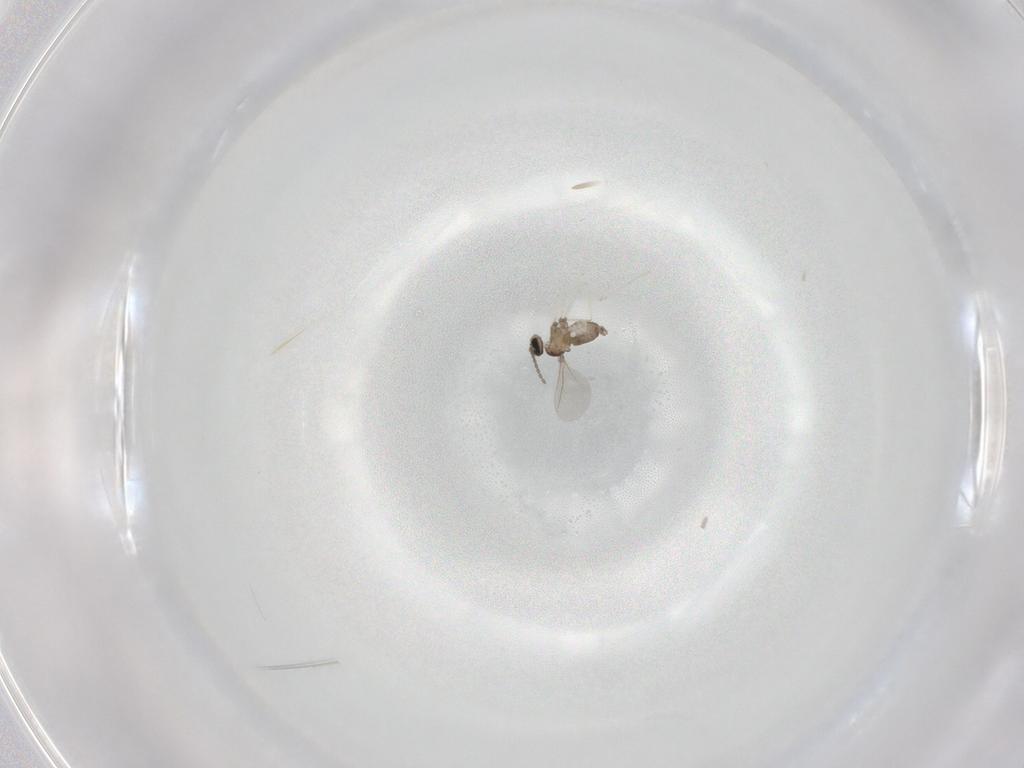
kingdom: Animalia
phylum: Arthropoda
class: Insecta
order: Diptera
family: Cecidomyiidae
